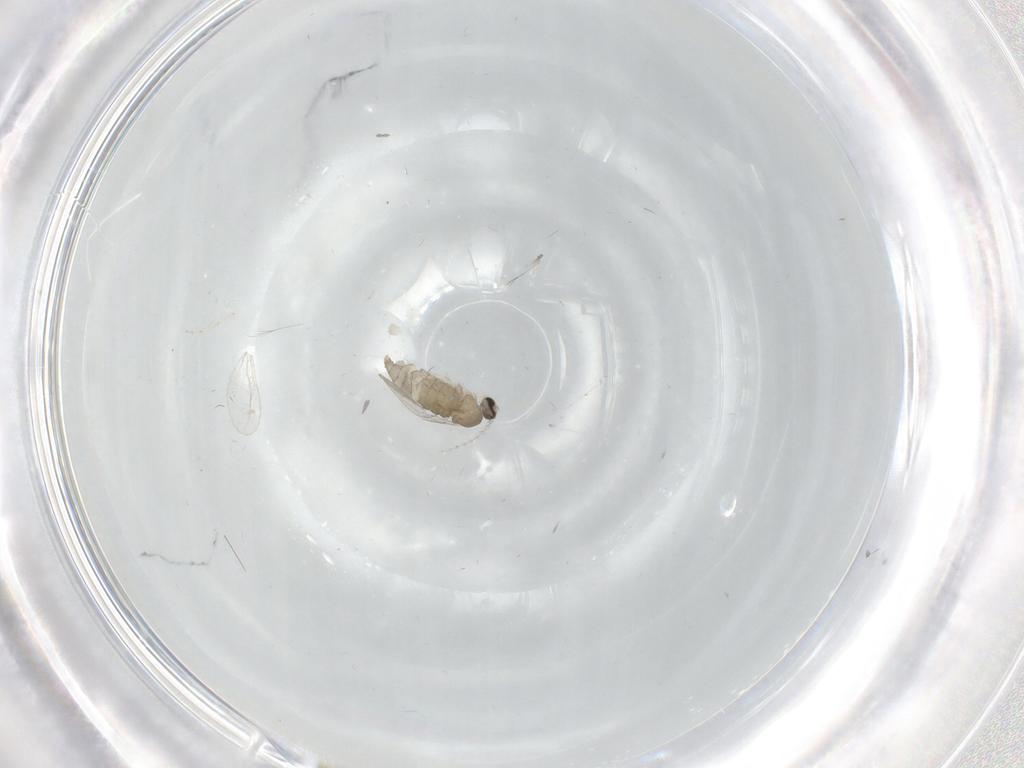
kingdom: Animalia
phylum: Arthropoda
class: Insecta
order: Diptera
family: Cecidomyiidae
